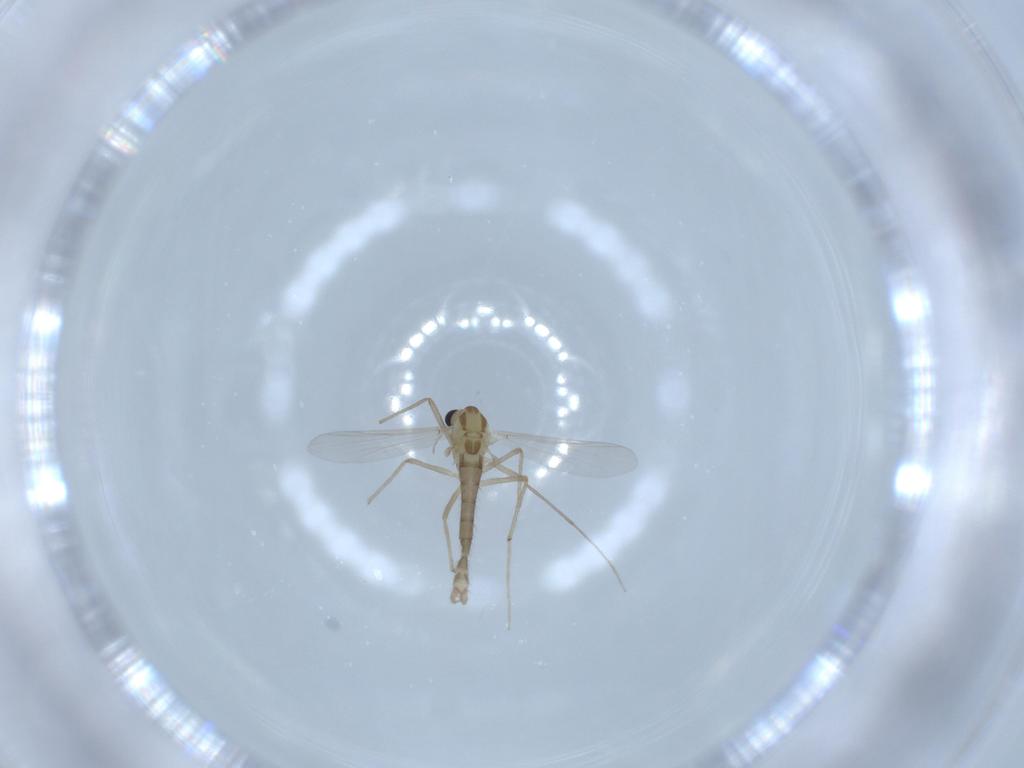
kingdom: Animalia
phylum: Arthropoda
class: Insecta
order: Diptera
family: Chironomidae
